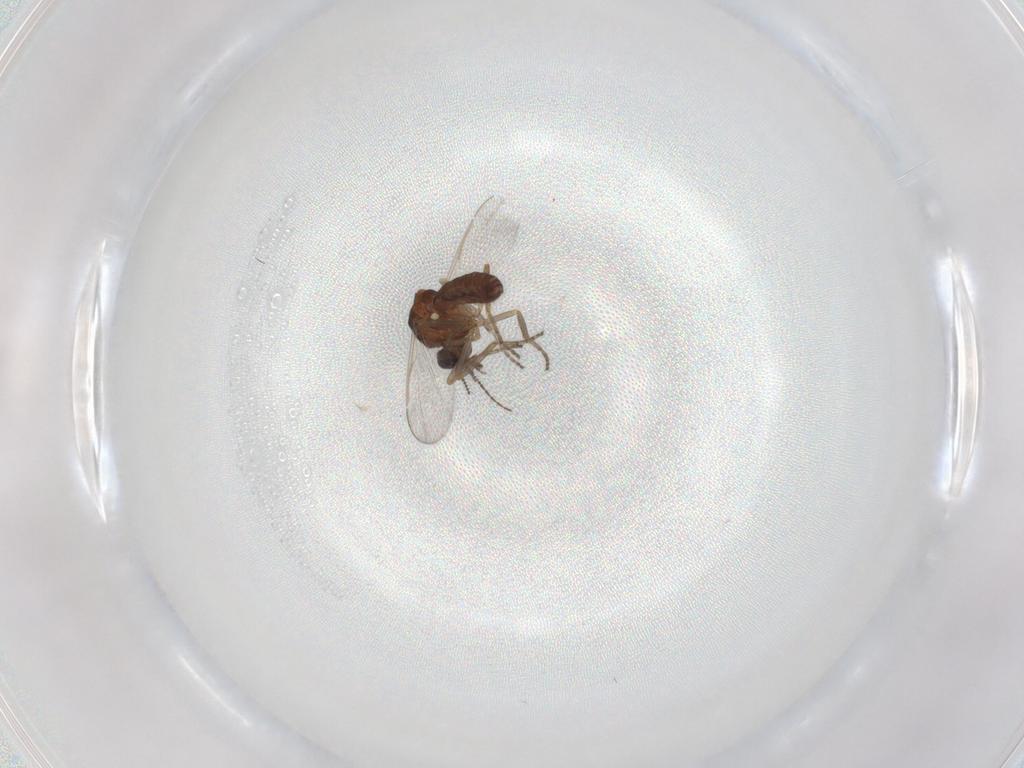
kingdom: Animalia
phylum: Arthropoda
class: Insecta
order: Diptera
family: Ceratopogonidae
